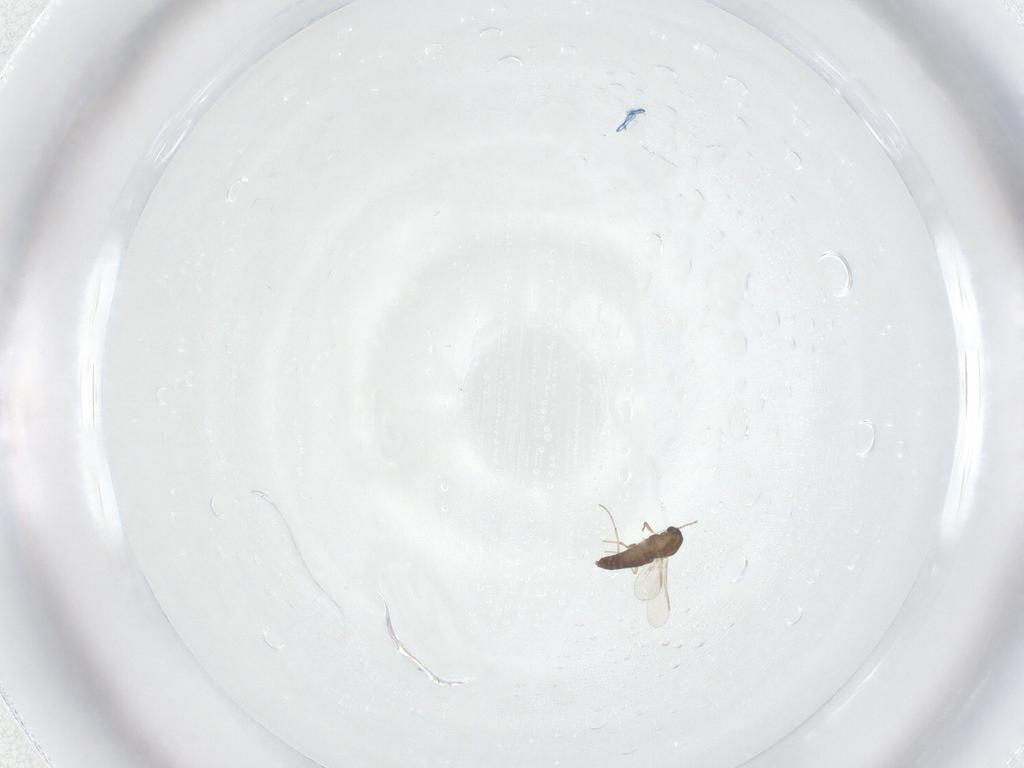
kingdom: Animalia
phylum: Arthropoda
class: Insecta
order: Diptera
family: Chironomidae
